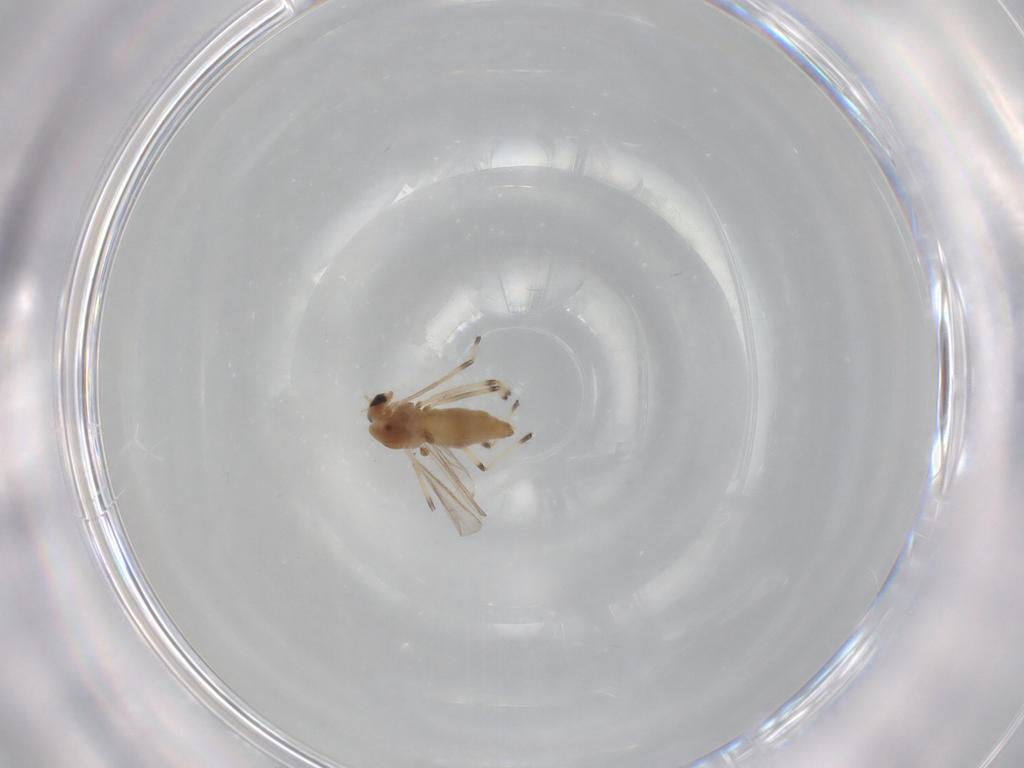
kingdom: Animalia
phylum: Arthropoda
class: Insecta
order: Diptera
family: Chironomidae
